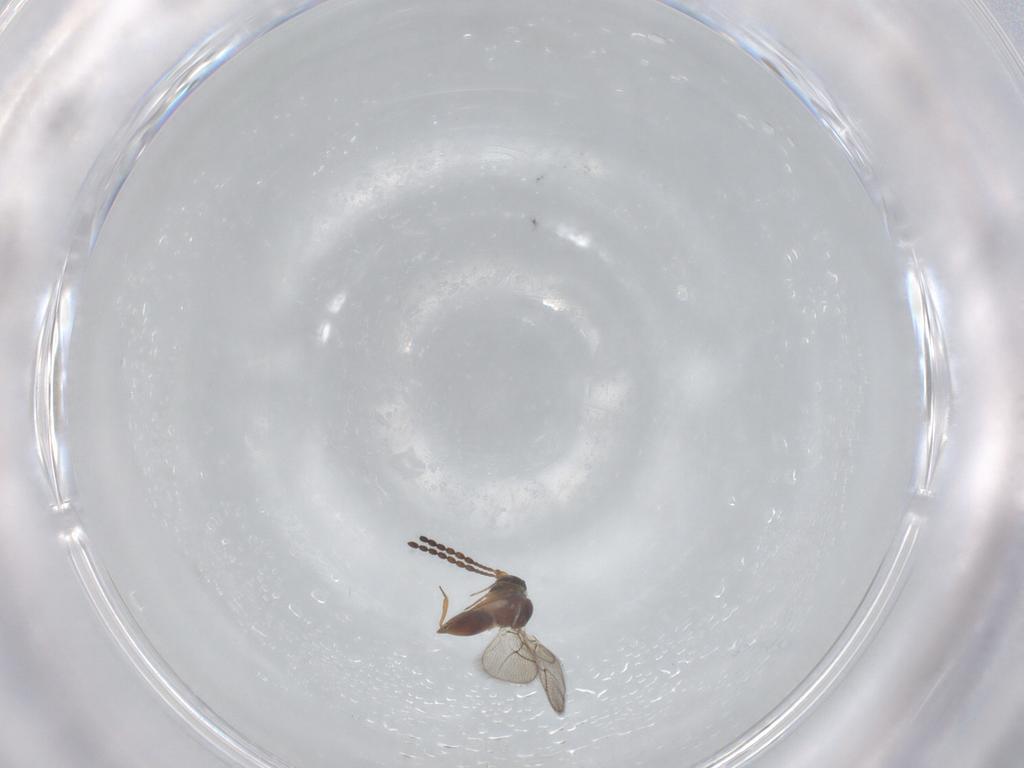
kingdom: Animalia
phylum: Arthropoda
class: Insecta
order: Hymenoptera
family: Figitidae
